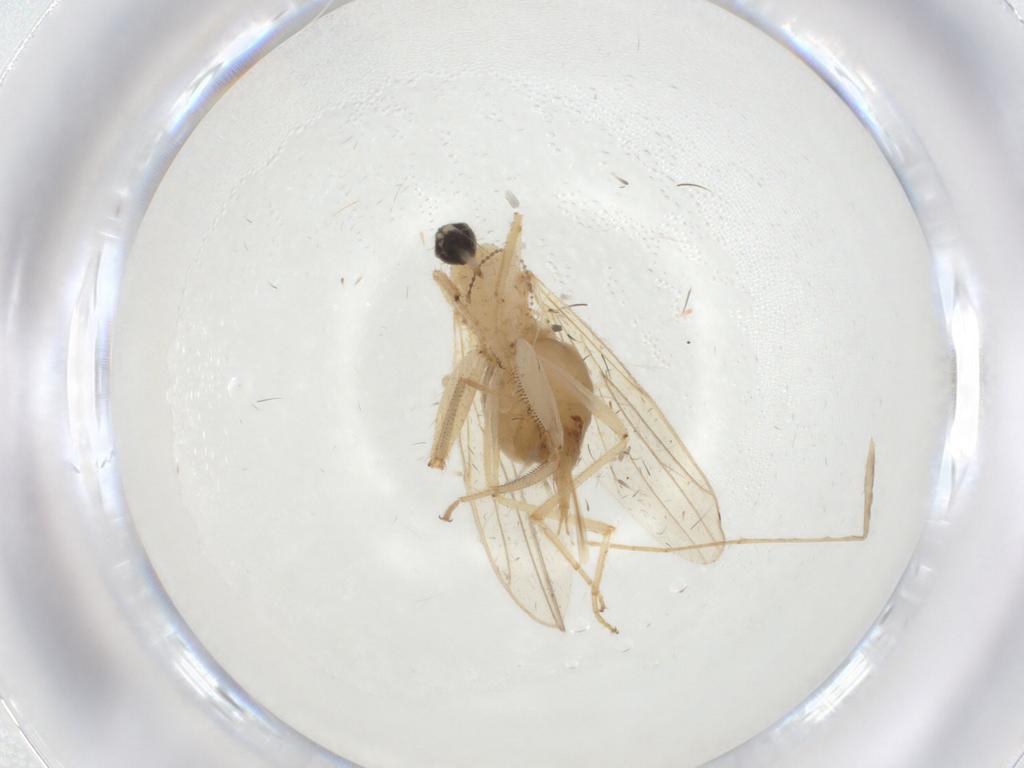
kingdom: Animalia
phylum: Arthropoda
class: Insecta
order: Diptera
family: Hybotidae
